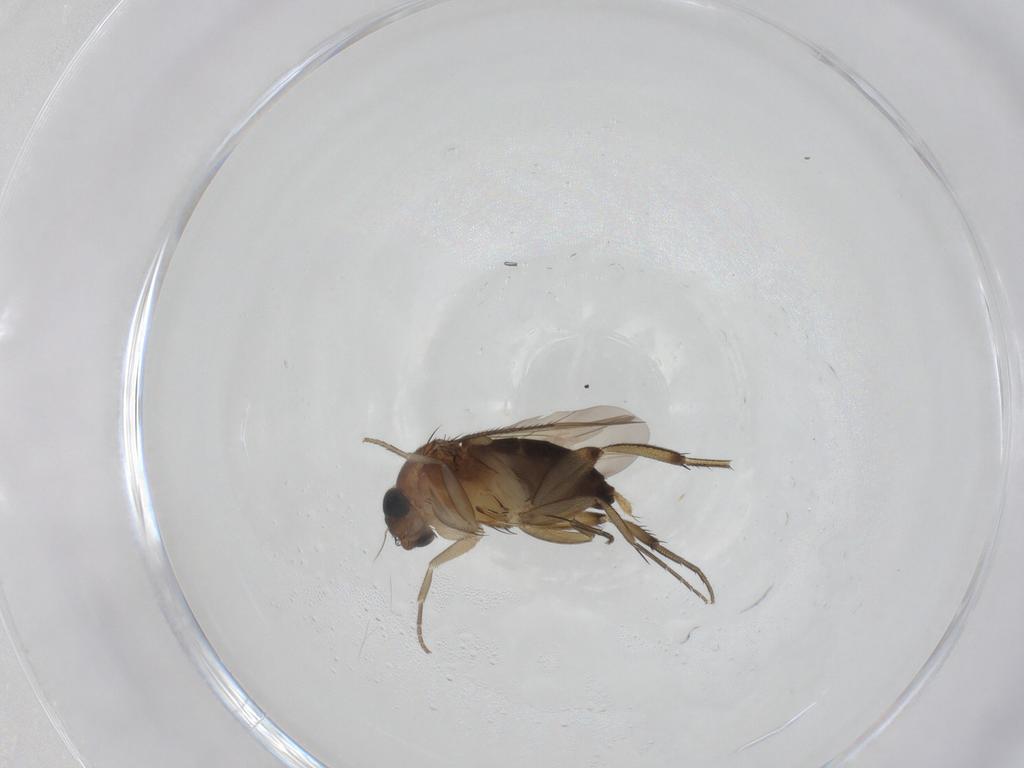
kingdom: Animalia
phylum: Arthropoda
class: Insecta
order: Diptera
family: Phoridae
